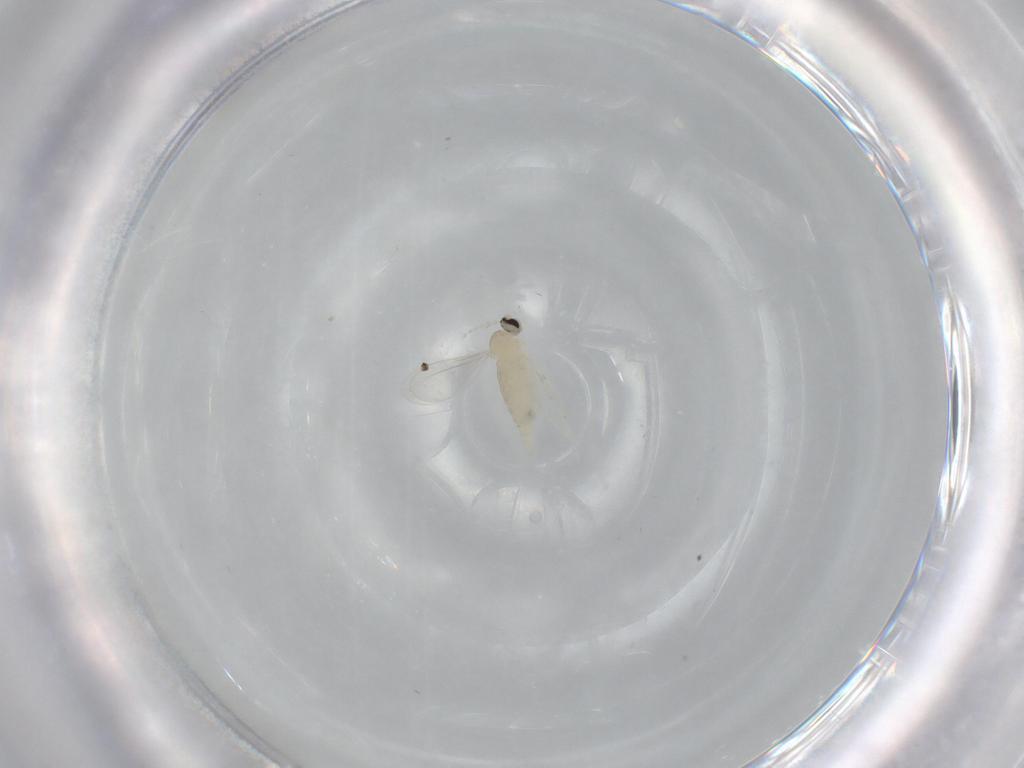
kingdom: Animalia
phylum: Arthropoda
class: Insecta
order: Diptera
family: Cecidomyiidae
